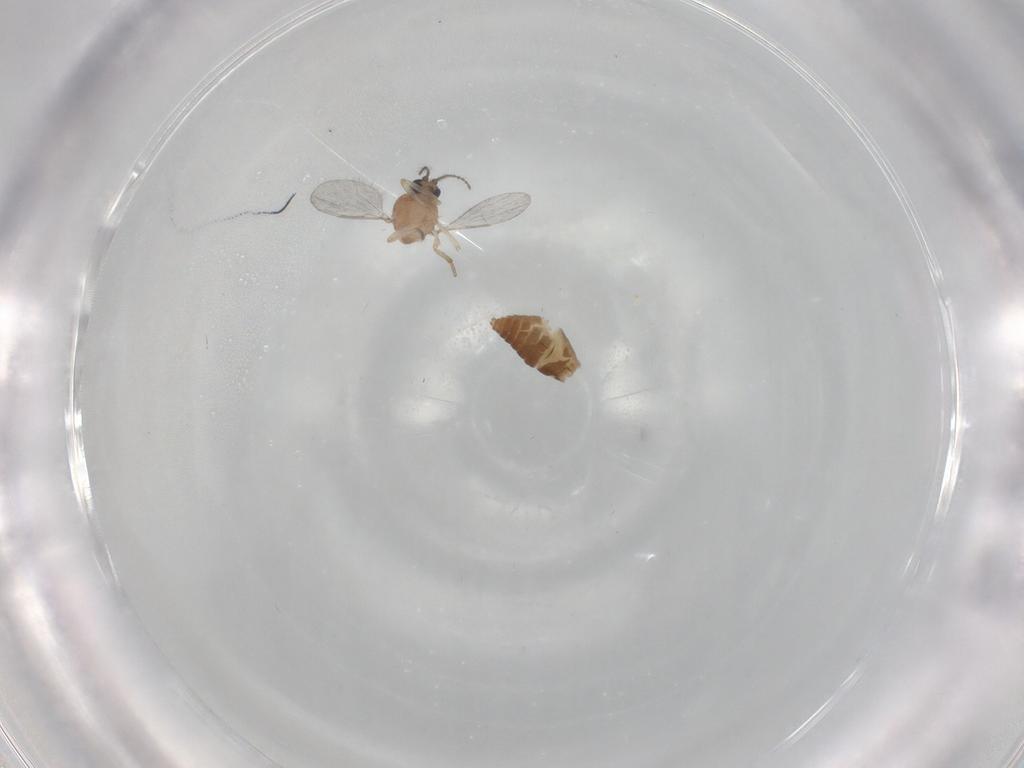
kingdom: Animalia
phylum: Arthropoda
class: Insecta
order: Diptera
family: Ceratopogonidae
